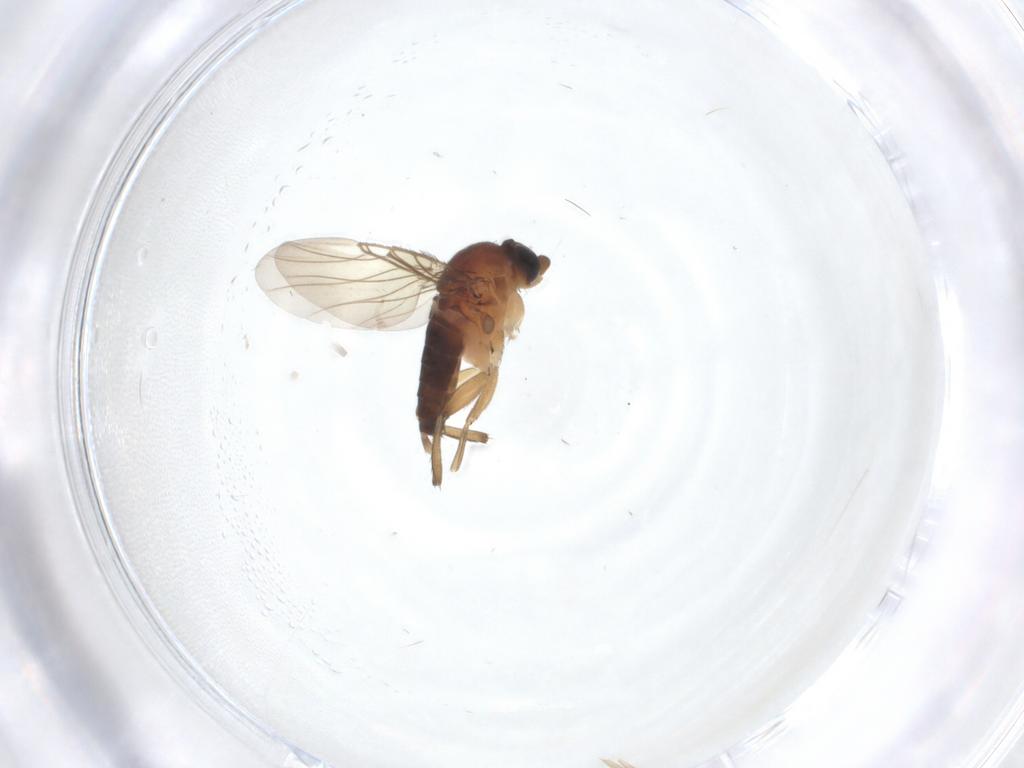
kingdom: Animalia
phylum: Arthropoda
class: Insecta
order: Diptera
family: Phoridae
